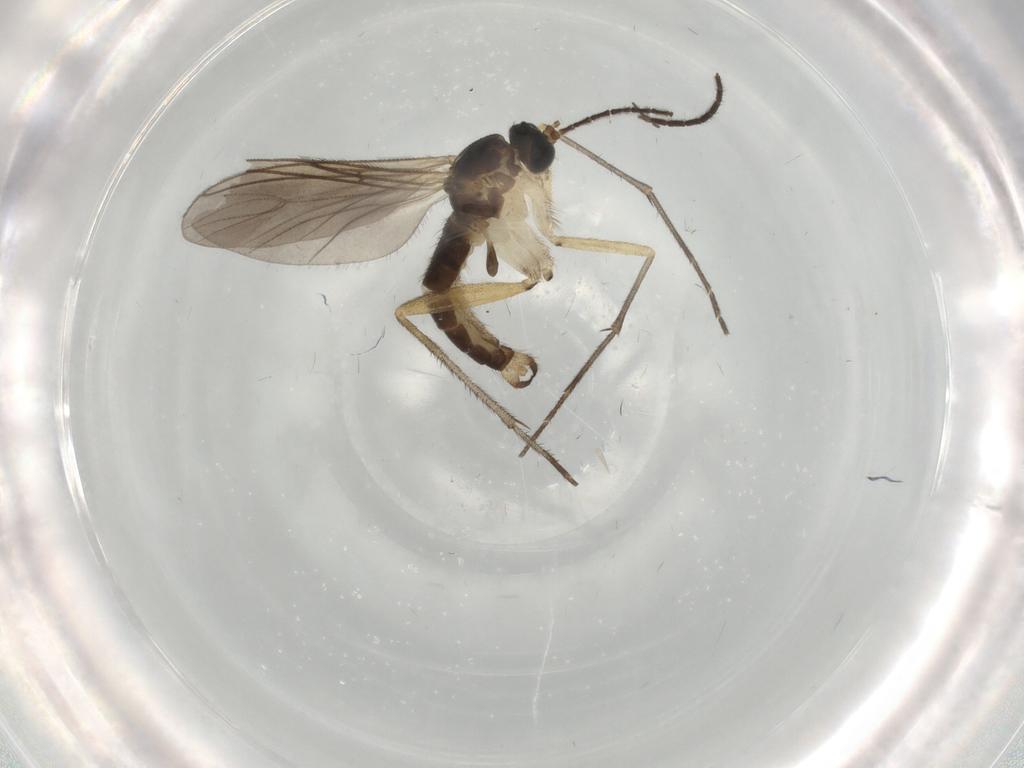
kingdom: Animalia
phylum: Arthropoda
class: Insecta
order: Diptera
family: Sciaridae
